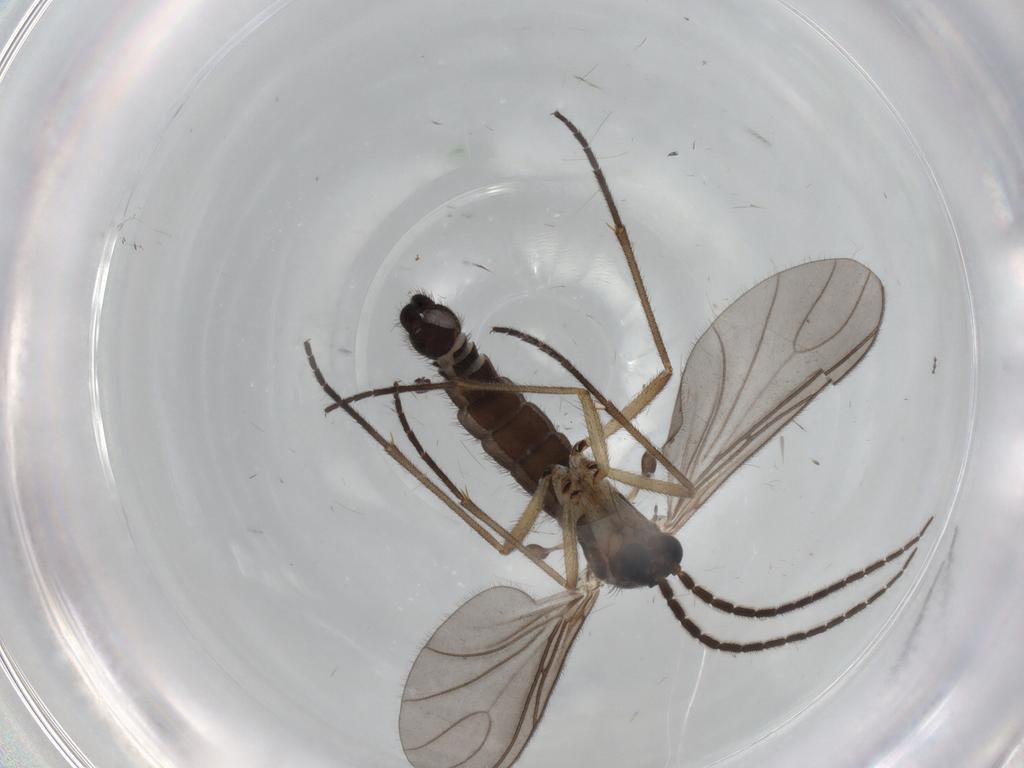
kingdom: Animalia
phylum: Arthropoda
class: Insecta
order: Diptera
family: Sciaridae
